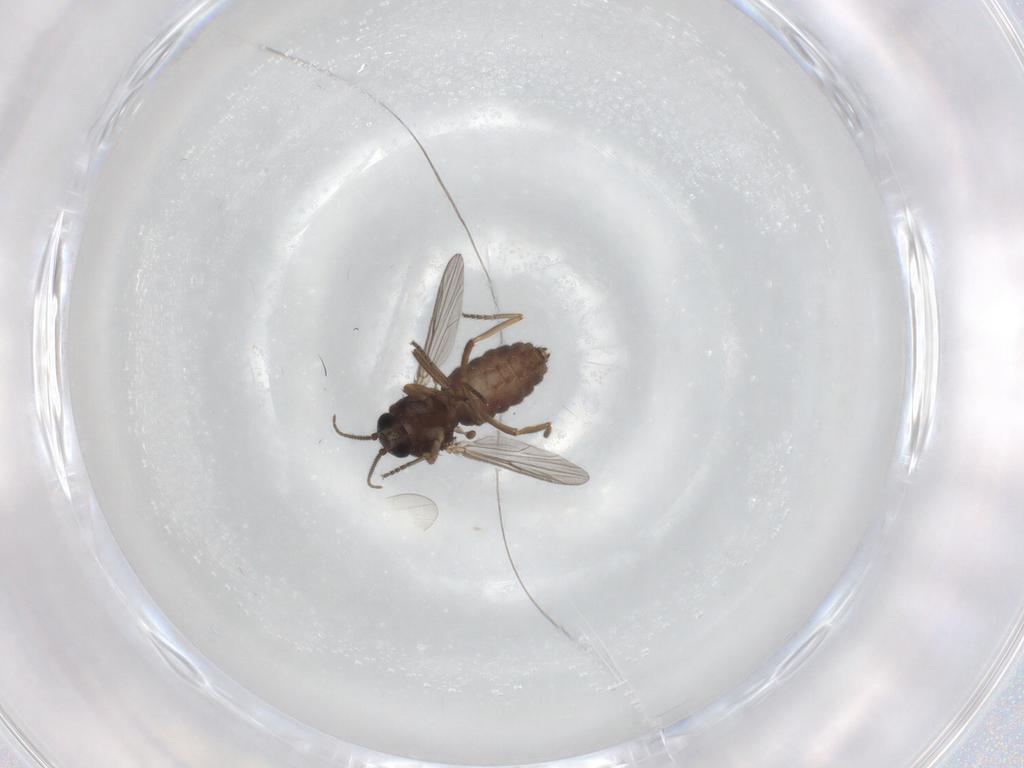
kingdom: Animalia
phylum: Arthropoda
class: Insecta
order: Diptera
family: Ceratopogonidae
